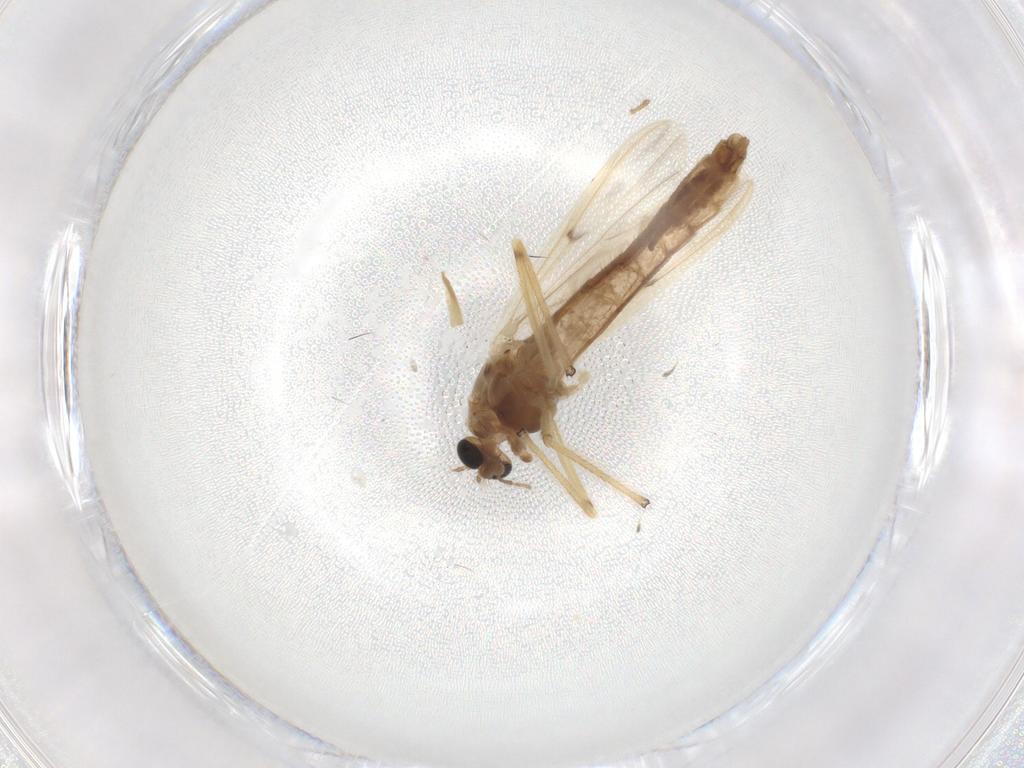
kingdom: Animalia
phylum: Arthropoda
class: Insecta
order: Diptera
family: Chironomidae
